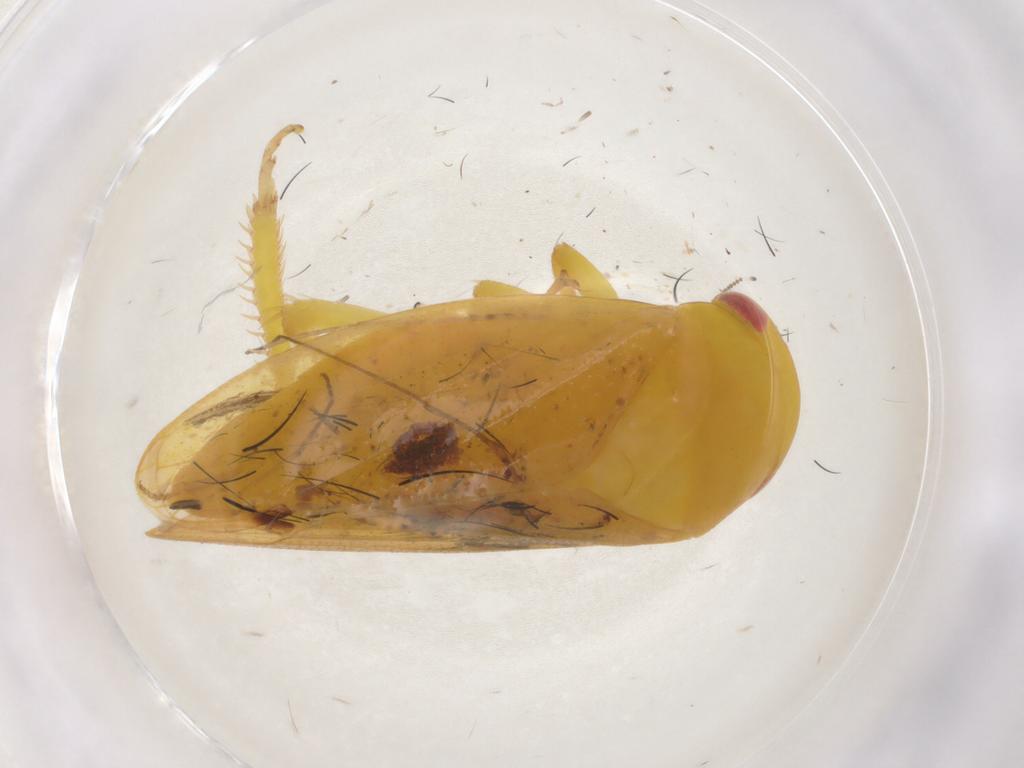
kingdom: Animalia
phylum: Arthropoda
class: Insecta
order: Hemiptera
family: Cicadellidae
